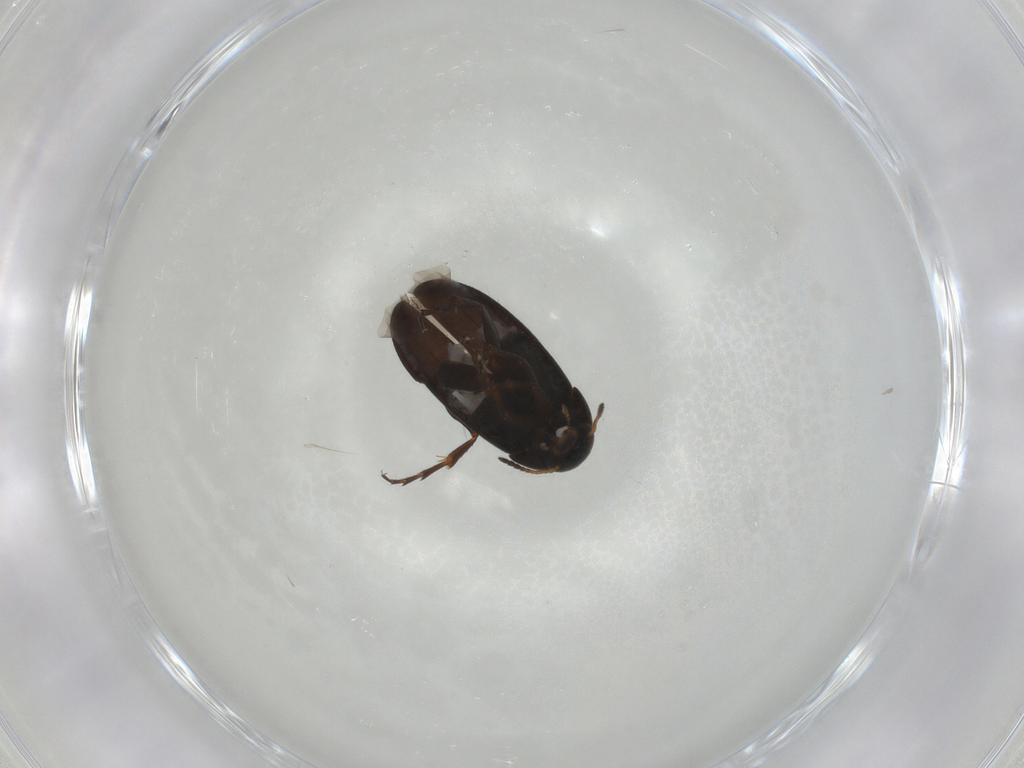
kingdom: Animalia
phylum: Arthropoda
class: Insecta
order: Coleoptera
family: Scraptiidae
